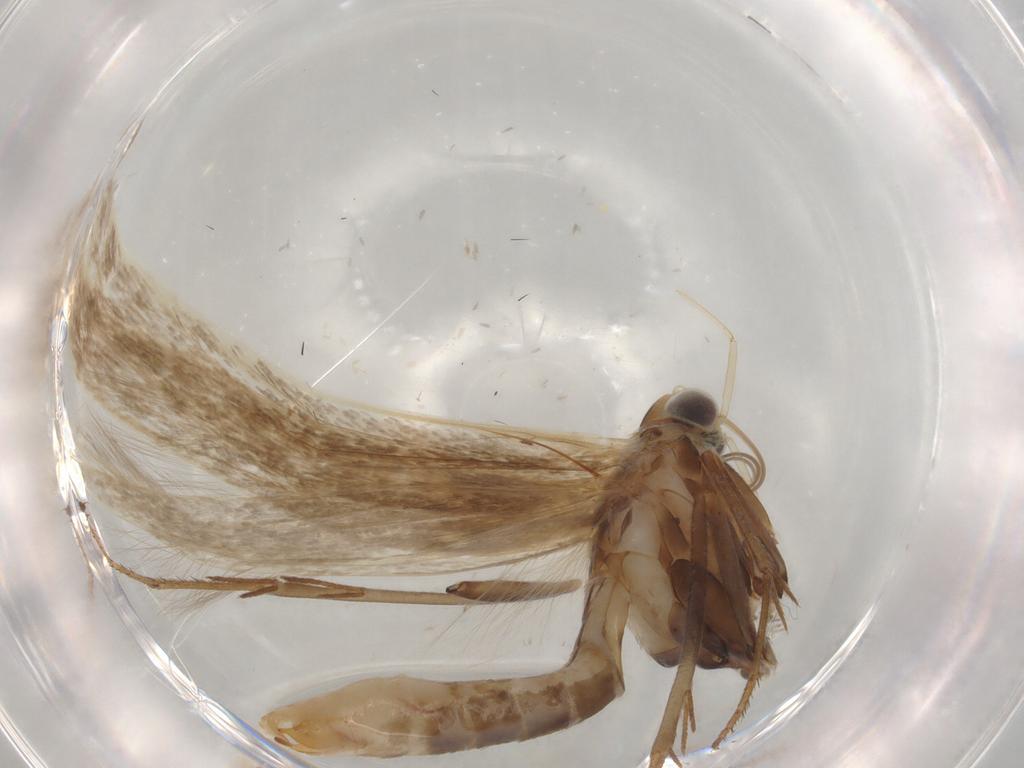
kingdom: Animalia
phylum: Arthropoda
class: Insecta
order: Lepidoptera
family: Coleophoridae
